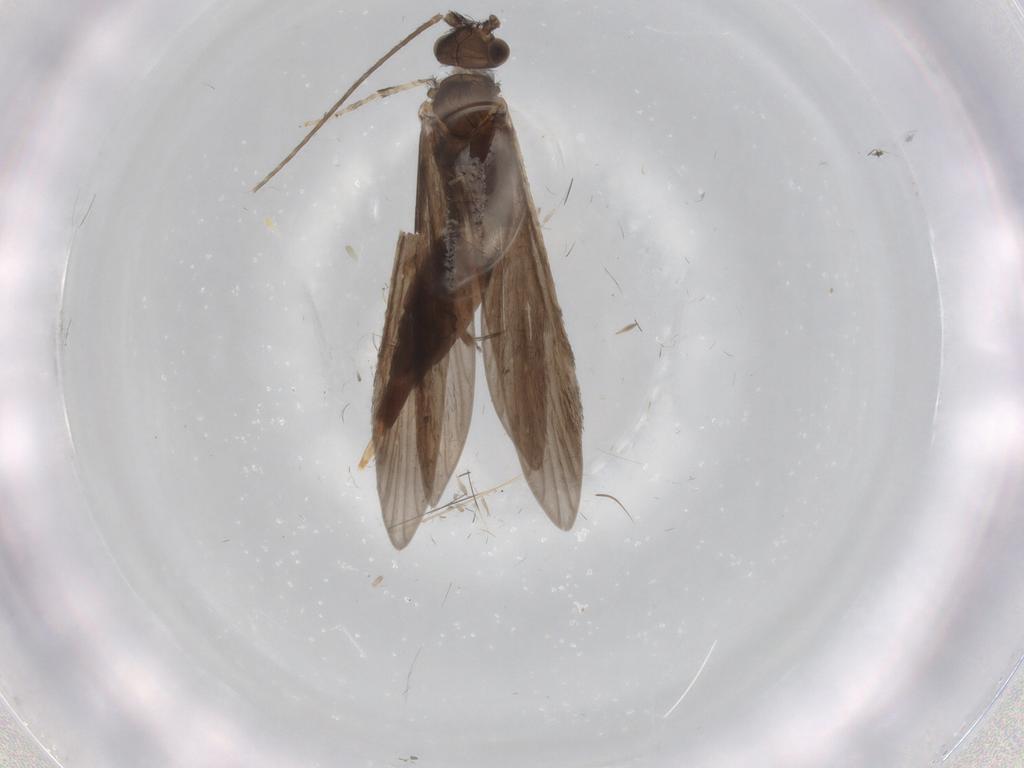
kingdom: Animalia
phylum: Arthropoda
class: Insecta
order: Trichoptera
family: Xiphocentronidae
